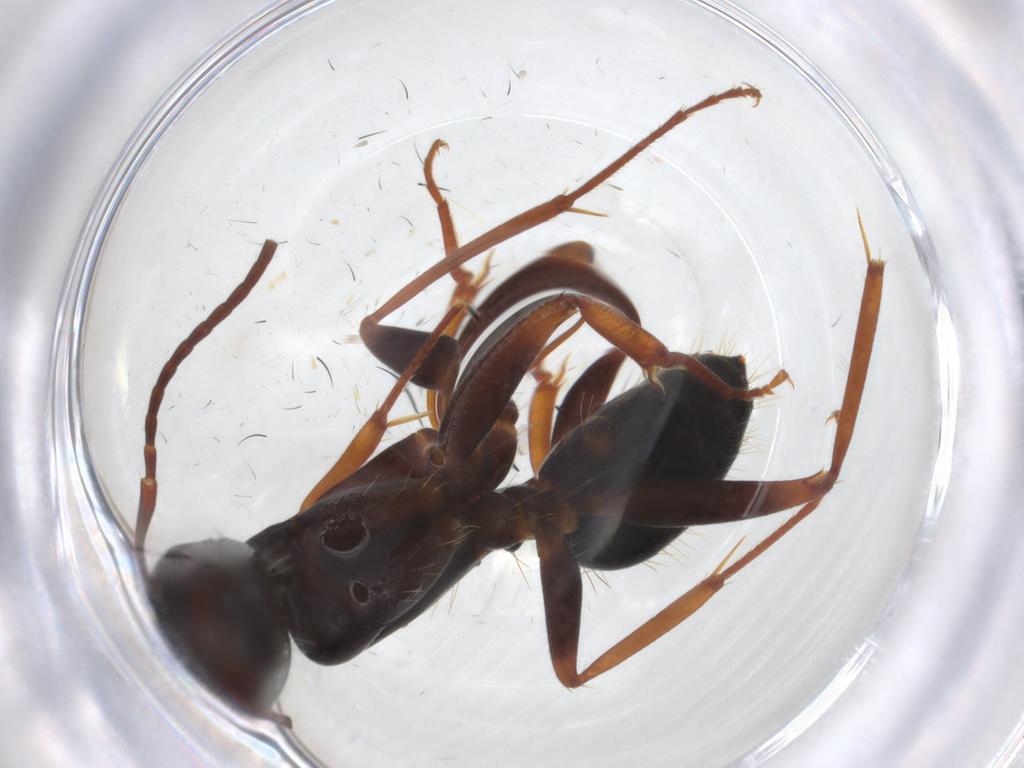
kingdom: Animalia
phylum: Arthropoda
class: Insecta
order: Hymenoptera
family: Formicidae
